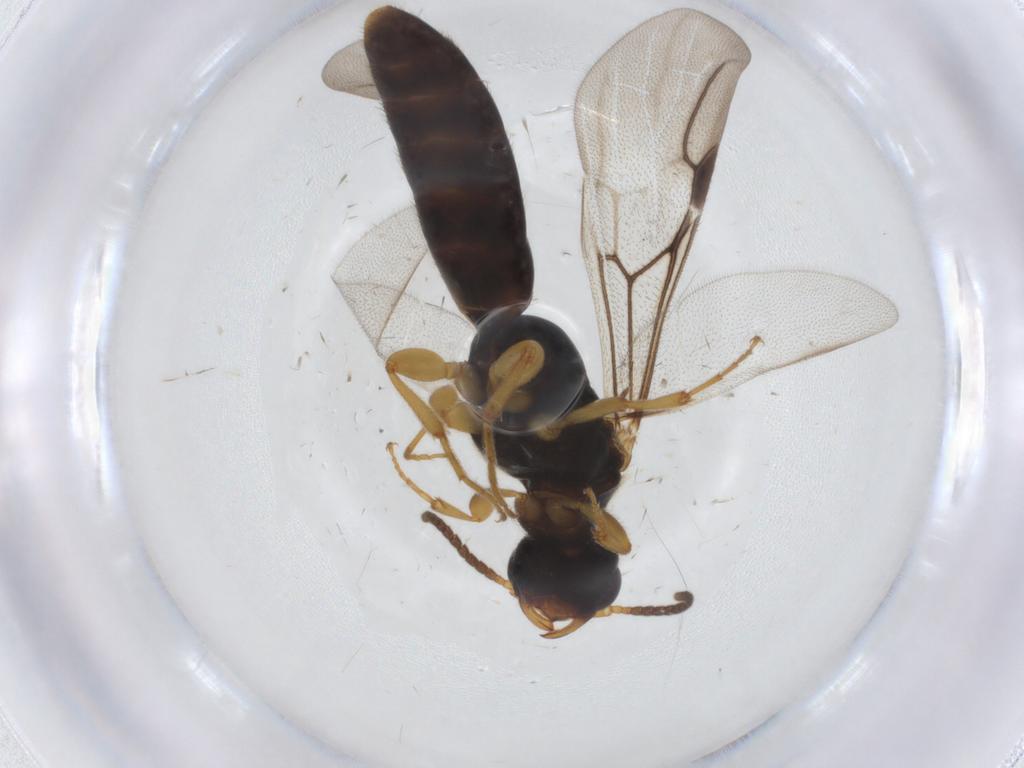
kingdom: Animalia
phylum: Arthropoda
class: Insecta
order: Hymenoptera
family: Bethylidae
